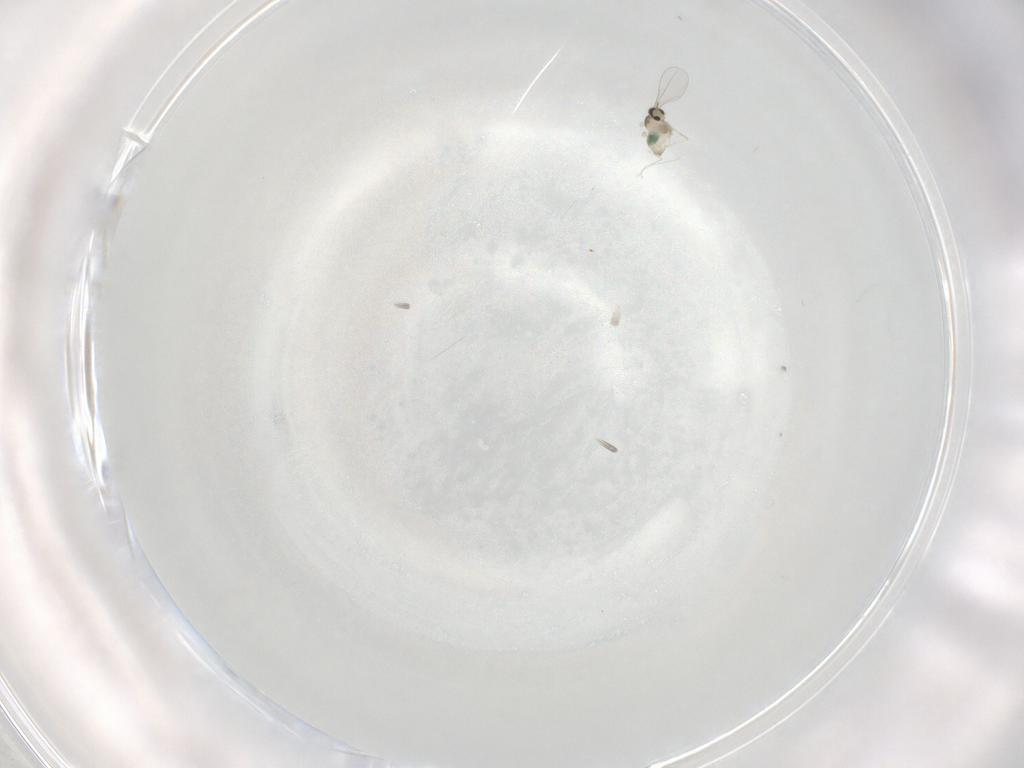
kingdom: Animalia
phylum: Arthropoda
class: Insecta
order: Diptera
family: Cecidomyiidae
